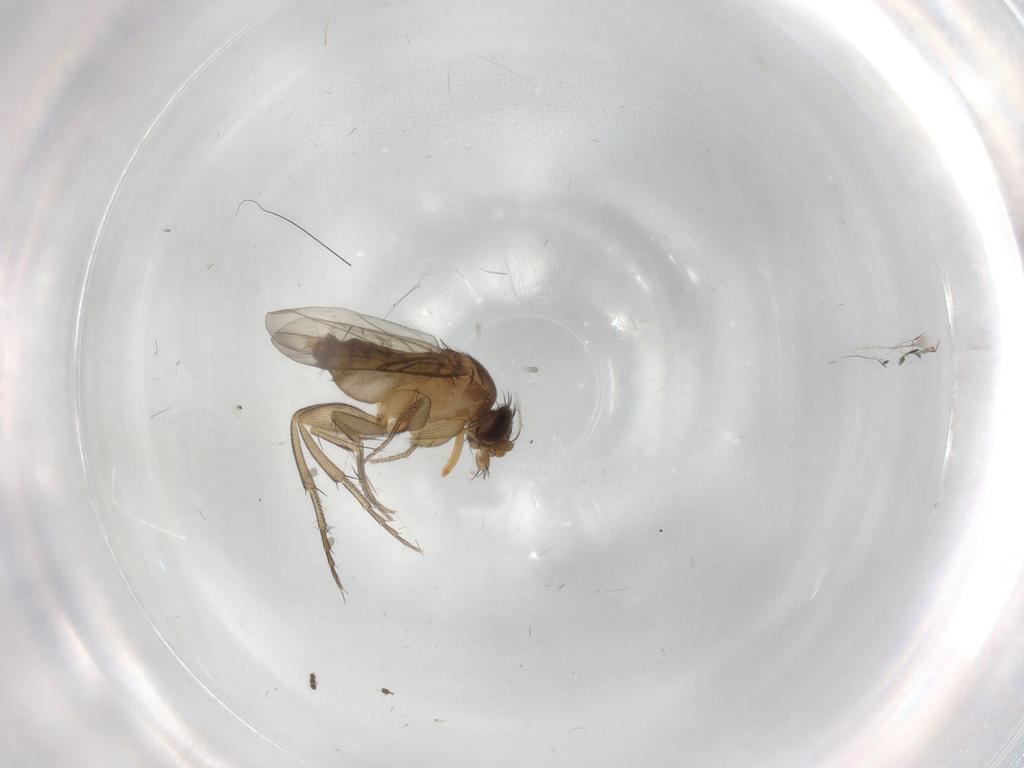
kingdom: Animalia
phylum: Arthropoda
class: Insecta
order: Diptera
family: Phoridae
